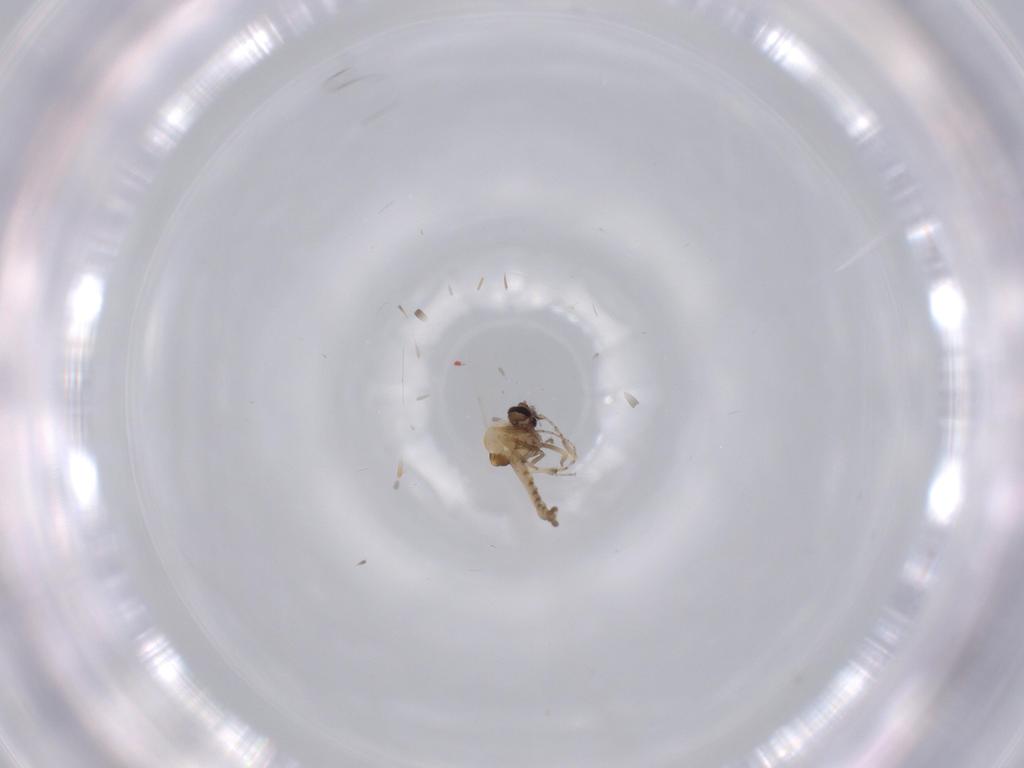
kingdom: Animalia
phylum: Arthropoda
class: Insecta
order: Diptera
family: Ceratopogonidae
